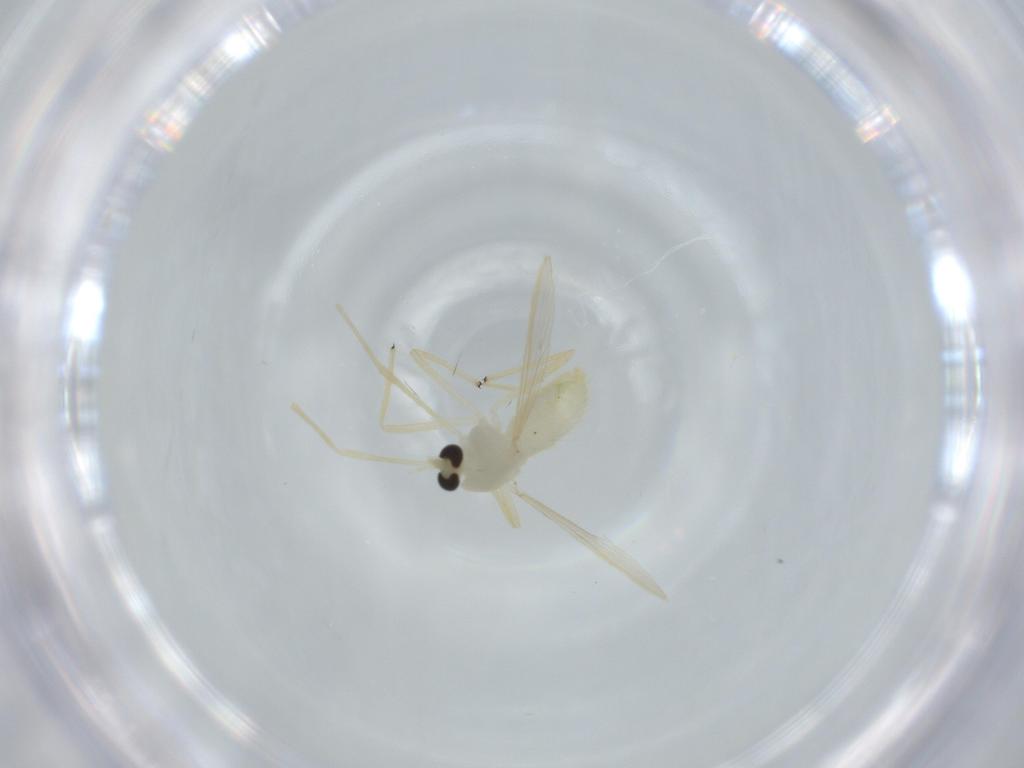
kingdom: Animalia
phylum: Arthropoda
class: Insecta
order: Diptera
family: Chironomidae
